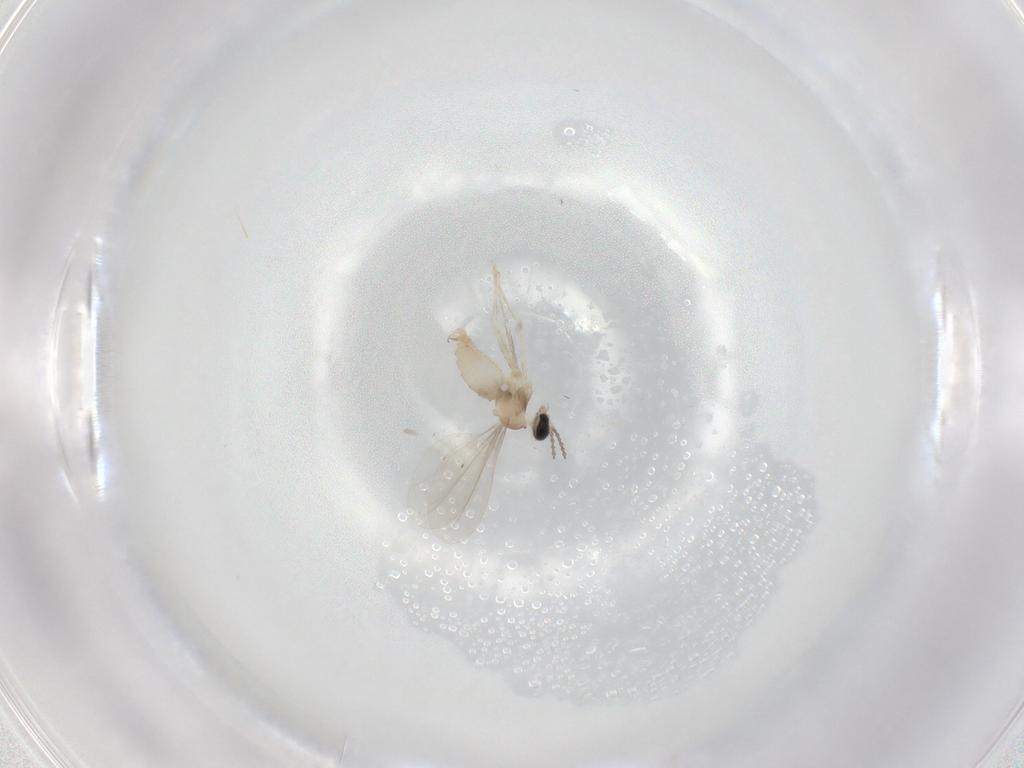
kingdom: Animalia
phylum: Arthropoda
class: Insecta
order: Diptera
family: Cecidomyiidae
